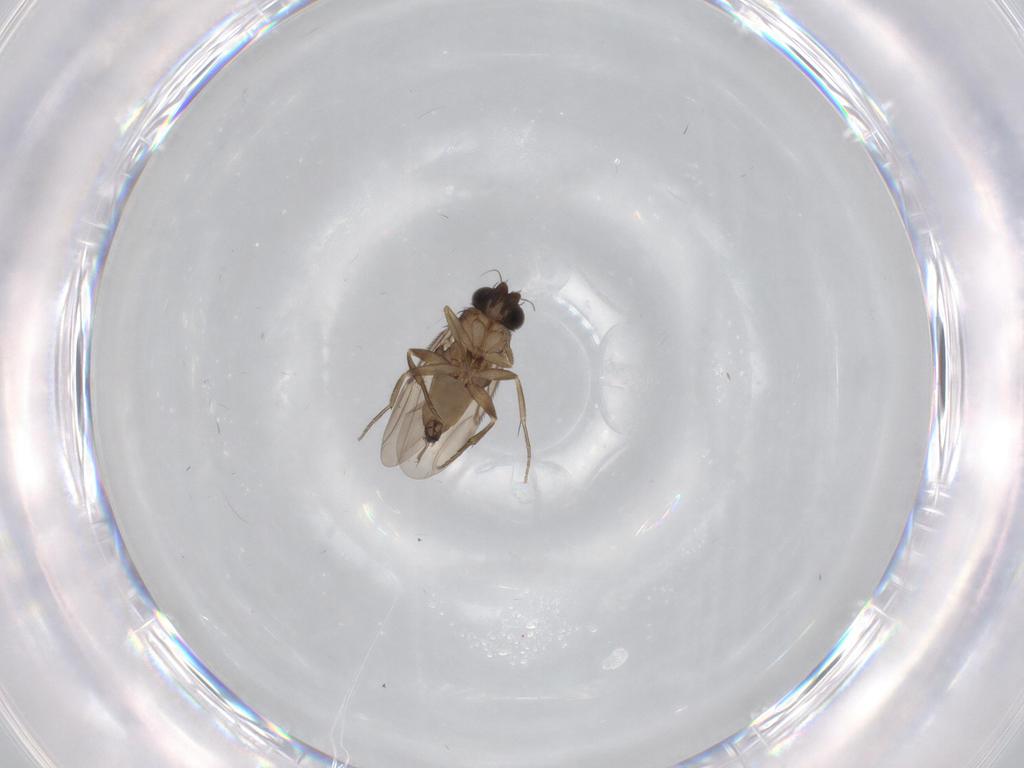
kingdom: Animalia
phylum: Arthropoda
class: Insecta
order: Diptera
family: Phoridae
